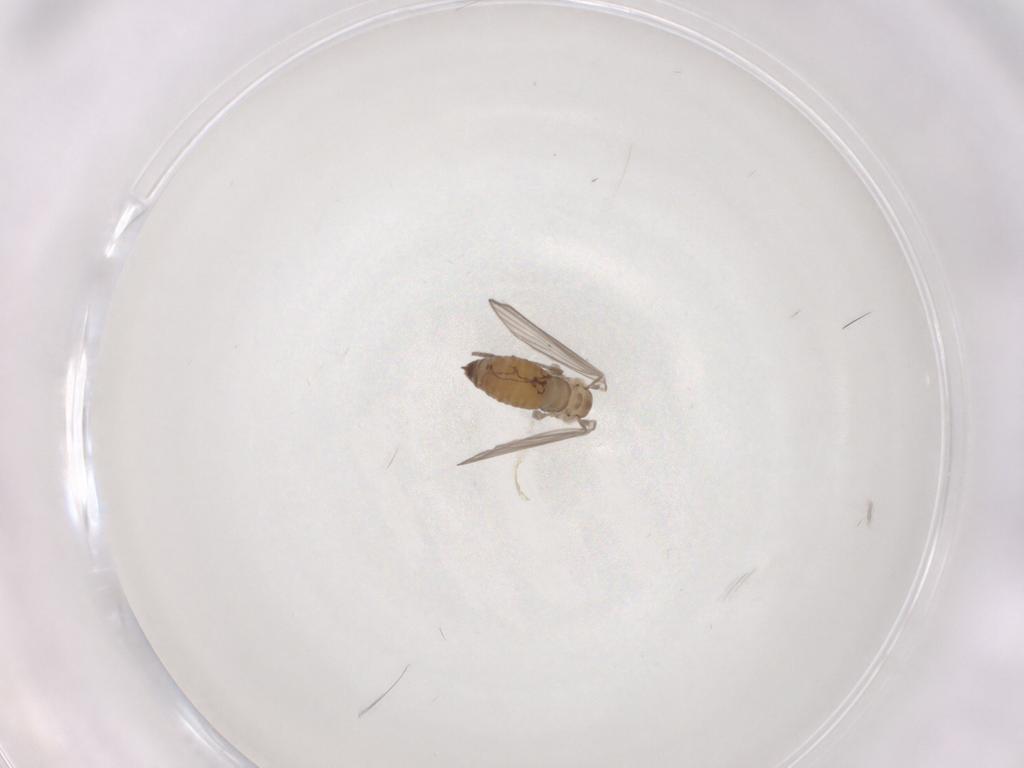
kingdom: Animalia
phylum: Arthropoda
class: Insecta
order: Diptera
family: Psychodidae
